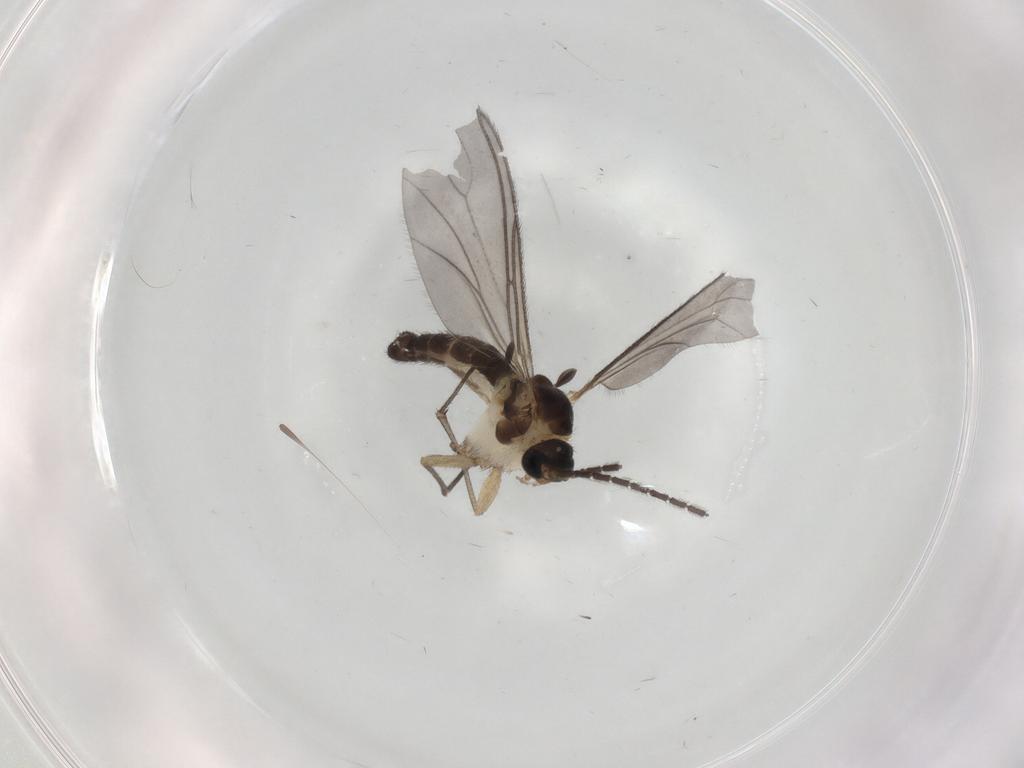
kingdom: Animalia
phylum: Arthropoda
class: Insecta
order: Diptera
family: Sciaridae
